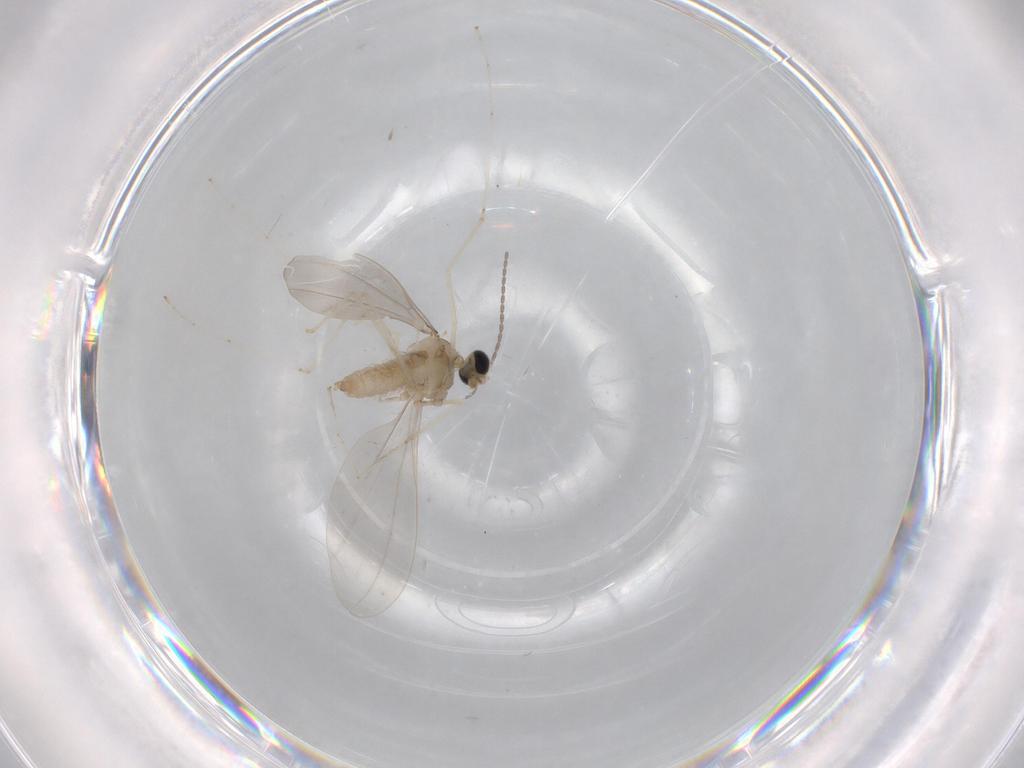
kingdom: Animalia
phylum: Arthropoda
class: Insecta
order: Diptera
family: Cecidomyiidae
